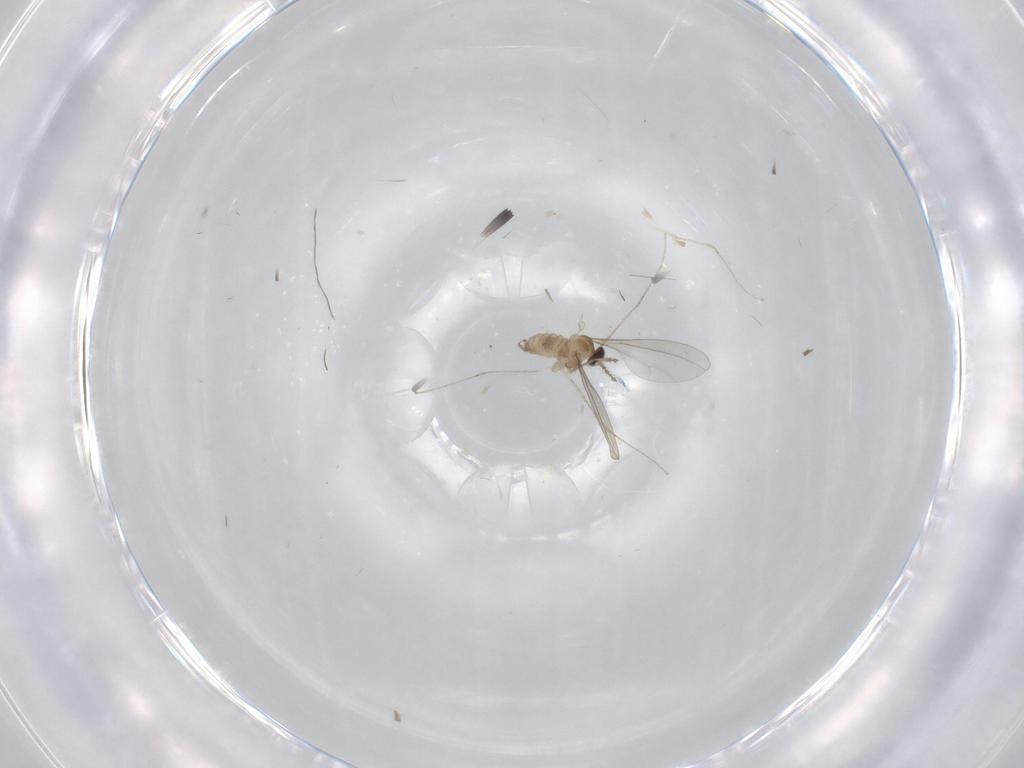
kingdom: Animalia
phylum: Arthropoda
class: Insecta
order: Diptera
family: Cecidomyiidae
